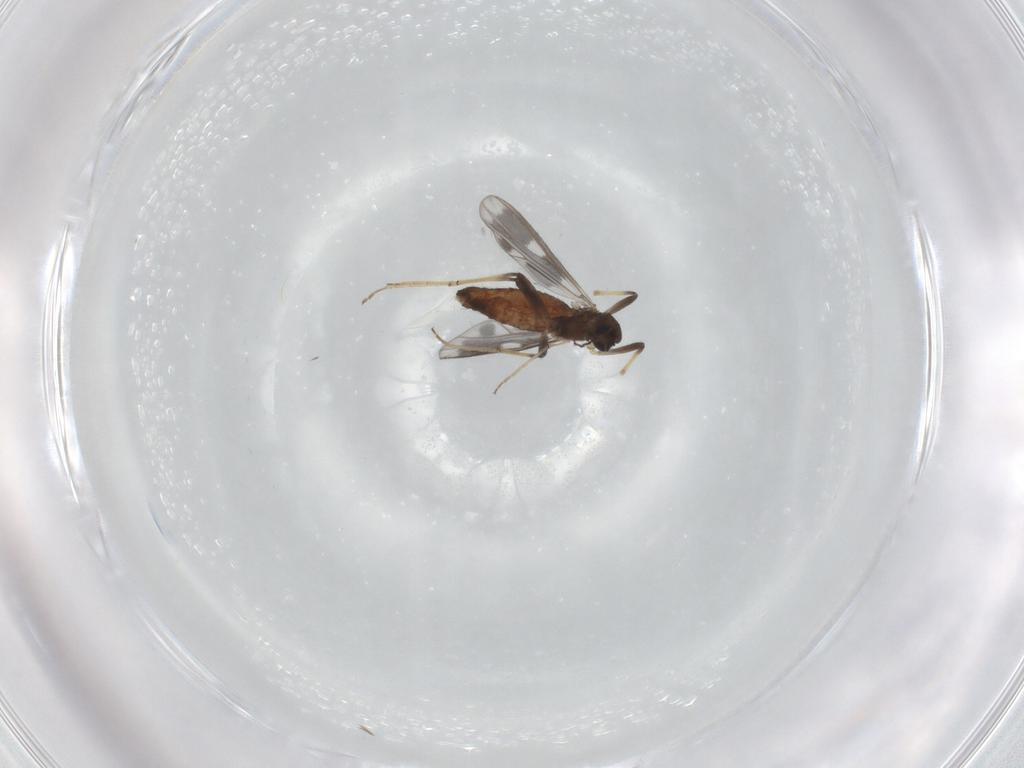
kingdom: Animalia
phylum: Arthropoda
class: Insecta
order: Diptera
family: Chironomidae
